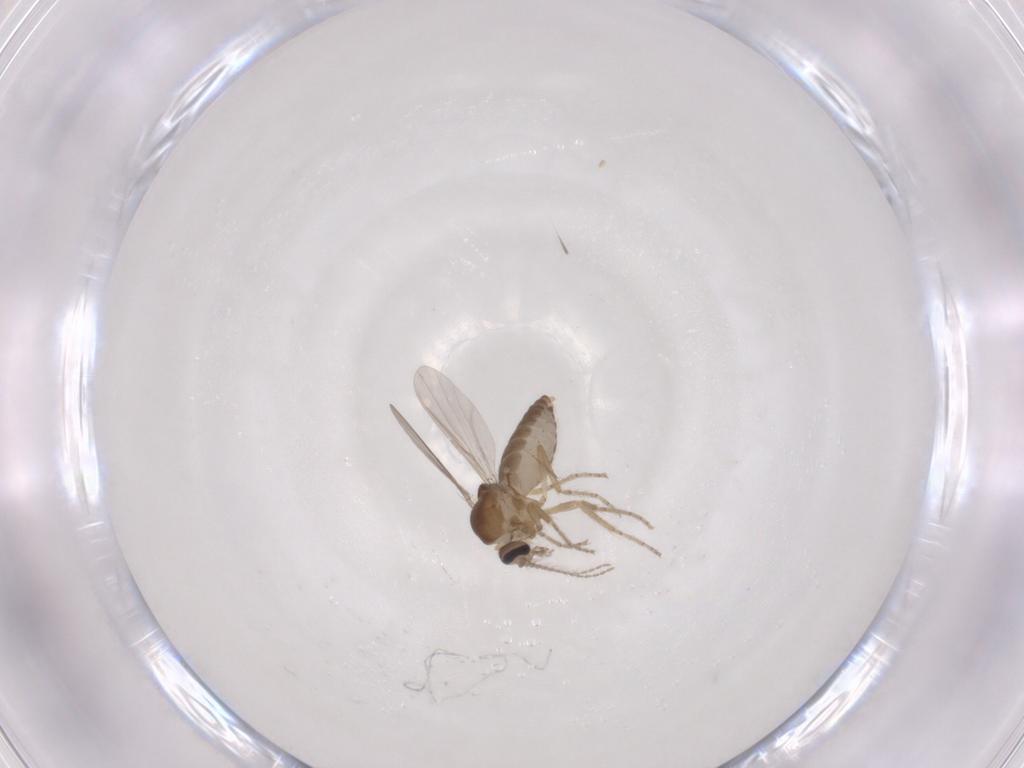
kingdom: Animalia
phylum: Arthropoda
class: Insecta
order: Diptera
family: Ceratopogonidae
